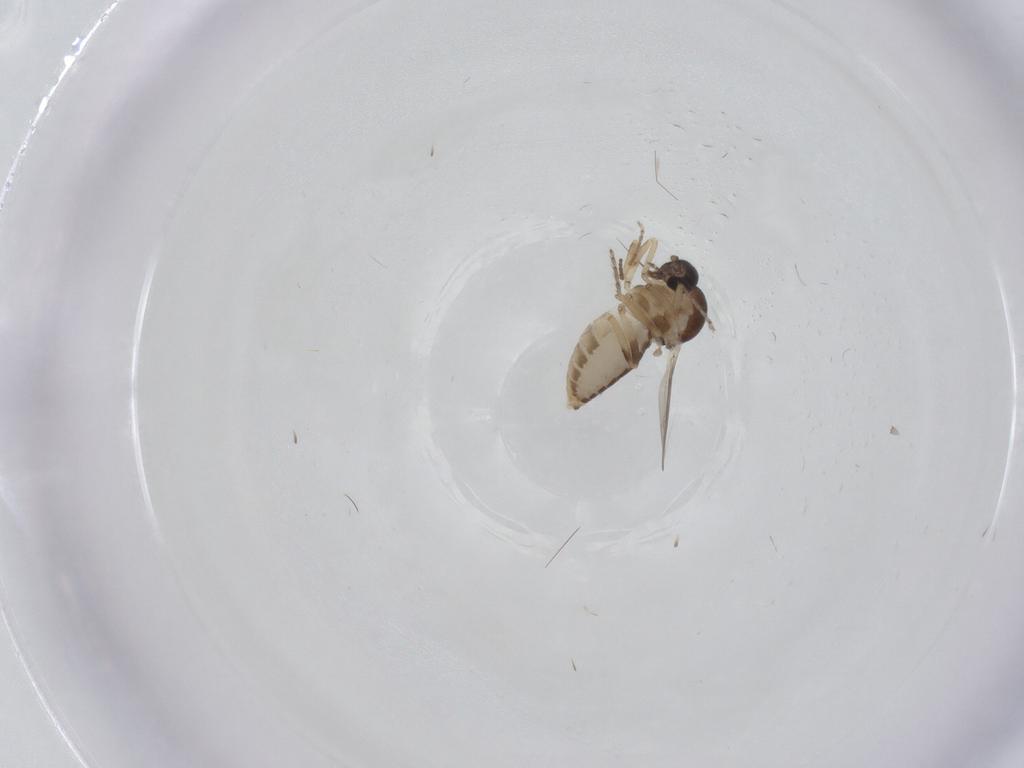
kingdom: Animalia
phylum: Arthropoda
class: Insecta
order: Diptera
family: Ceratopogonidae
